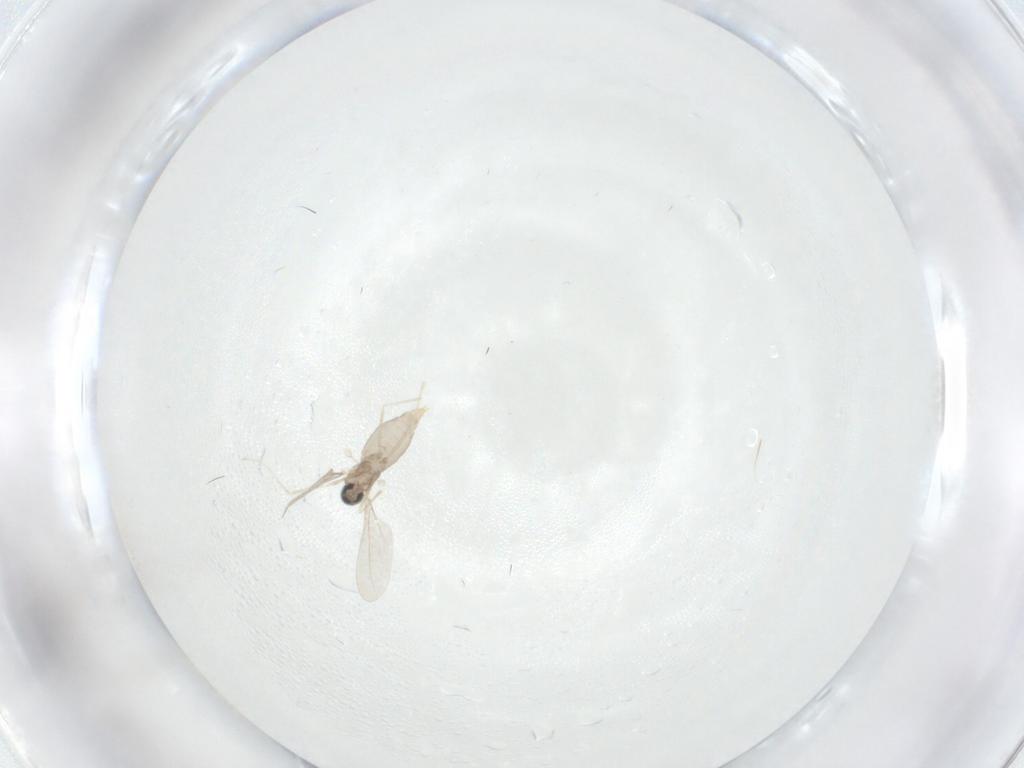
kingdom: Animalia
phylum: Arthropoda
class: Insecta
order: Diptera
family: Cecidomyiidae
